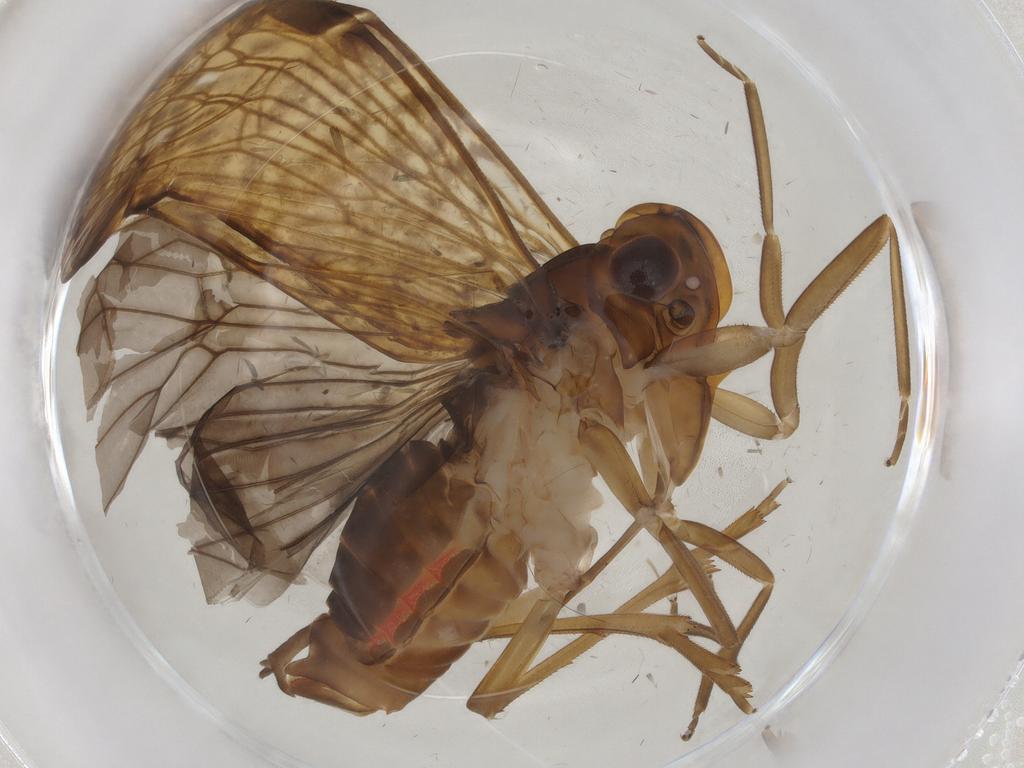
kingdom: Animalia
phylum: Arthropoda
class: Insecta
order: Hemiptera
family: Cixiidae
